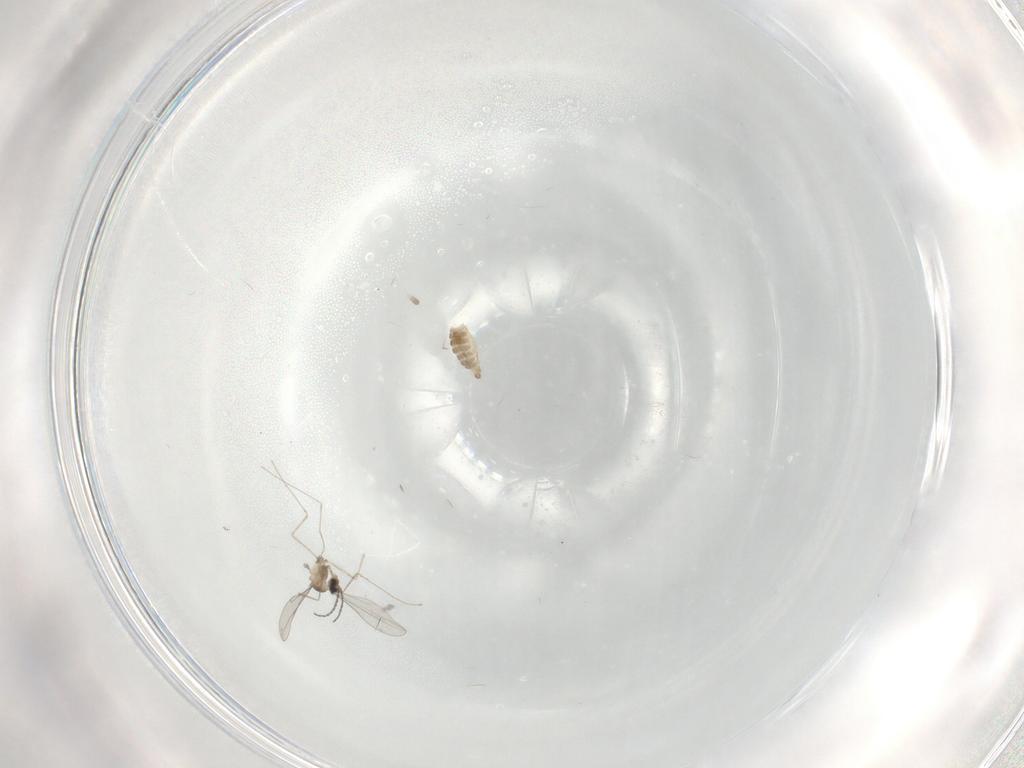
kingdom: Animalia
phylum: Arthropoda
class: Insecta
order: Diptera
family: Cecidomyiidae
